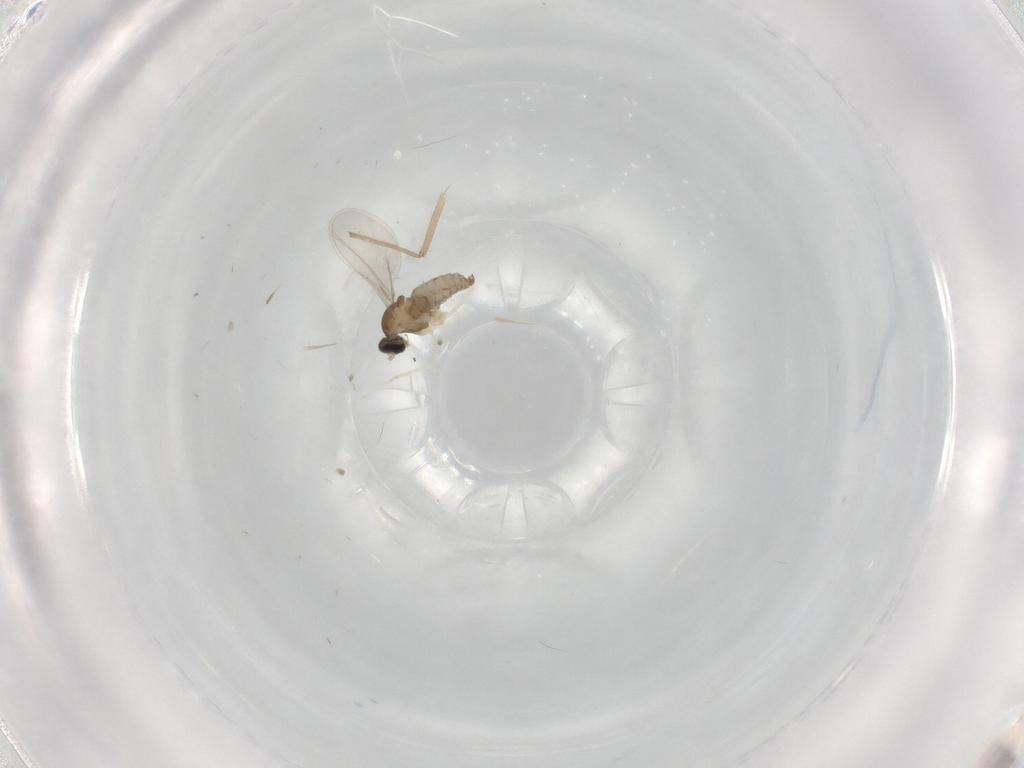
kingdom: Animalia
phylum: Arthropoda
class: Insecta
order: Diptera
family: Cecidomyiidae
